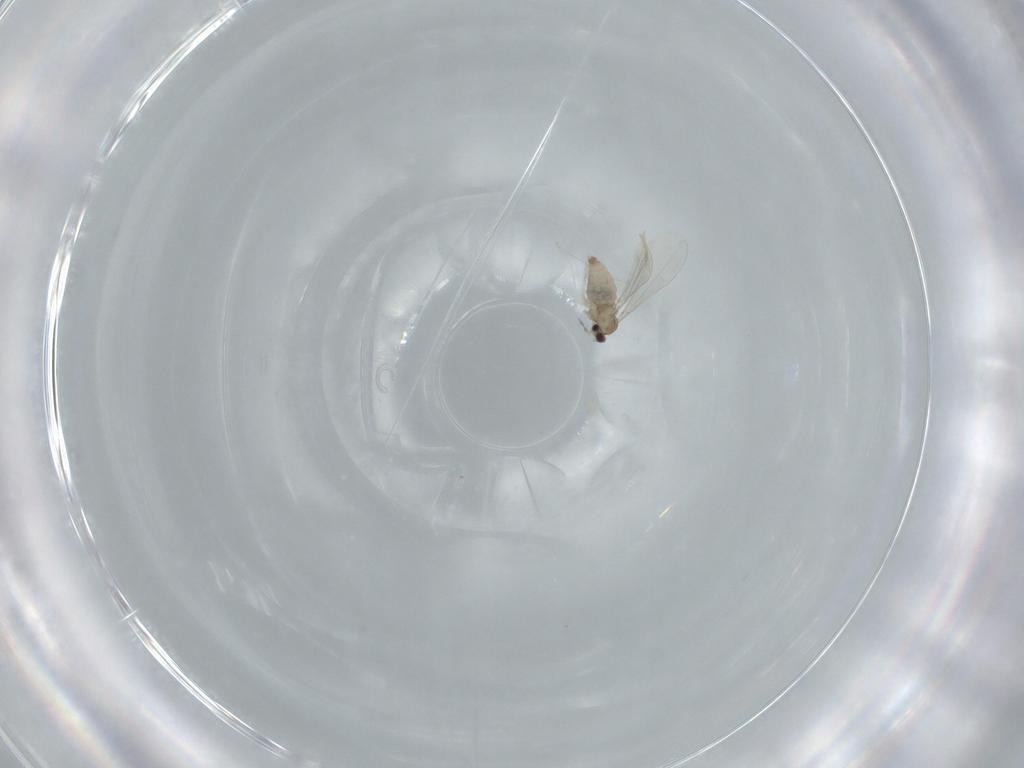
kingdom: Animalia
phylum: Arthropoda
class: Insecta
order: Diptera
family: Cecidomyiidae
